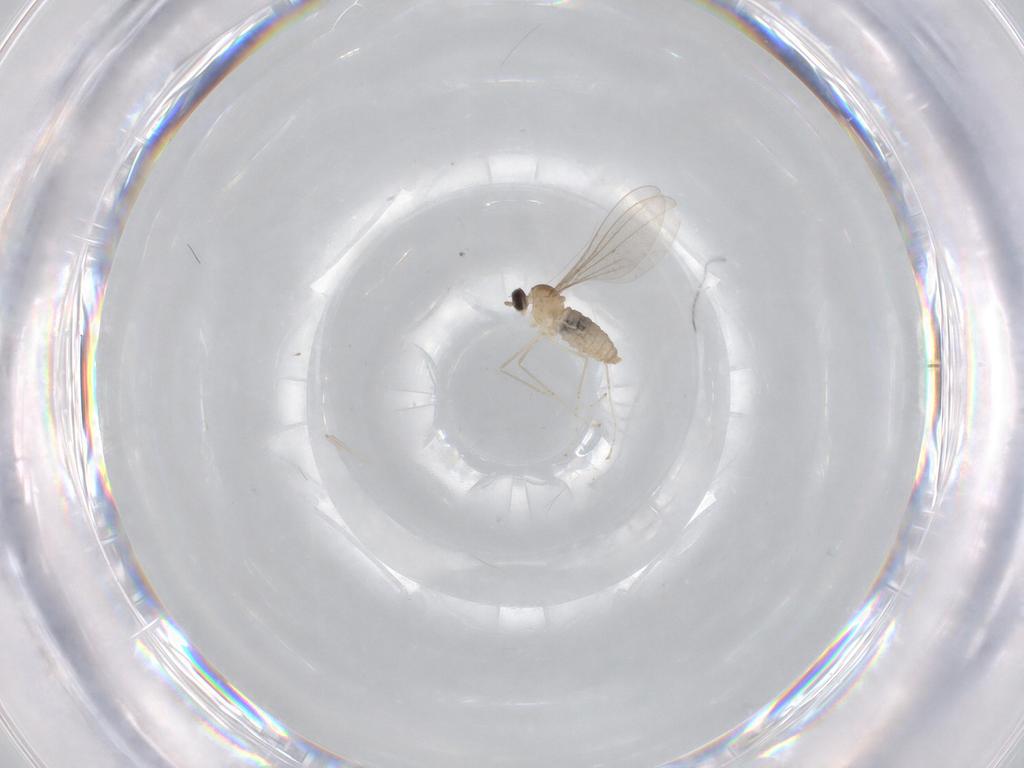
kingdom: Animalia
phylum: Arthropoda
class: Insecta
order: Diptera
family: Cecidomyiidae
